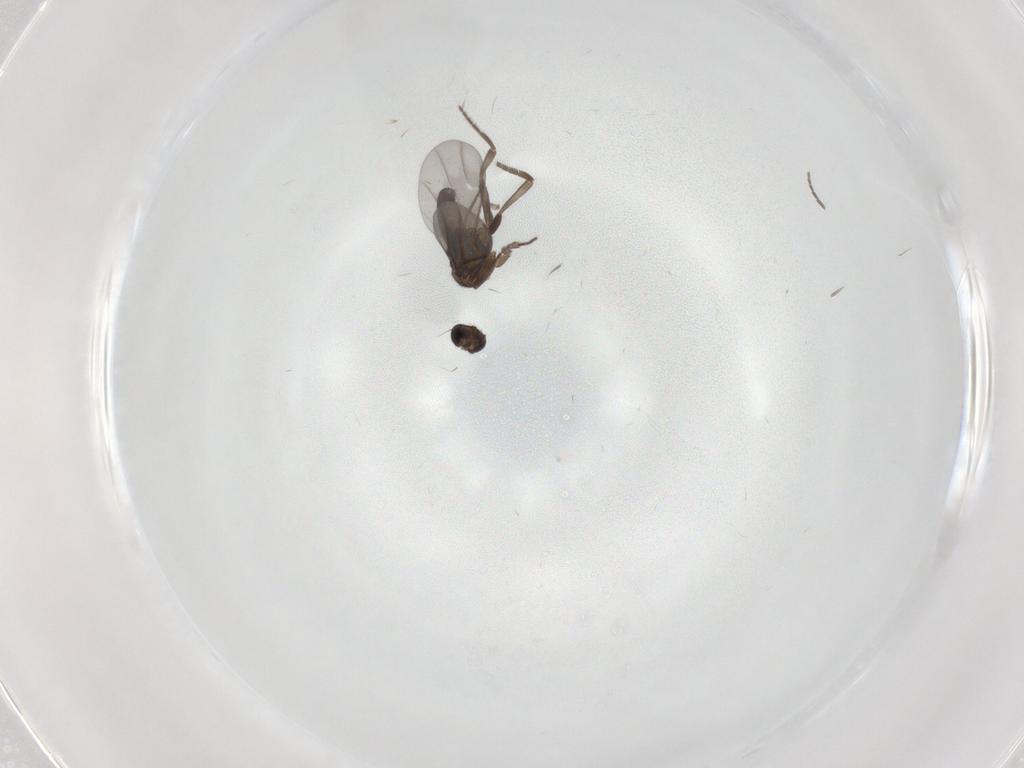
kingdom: Animalia
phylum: Arthropoda
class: Insecta
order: Diptera
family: Phoridae
